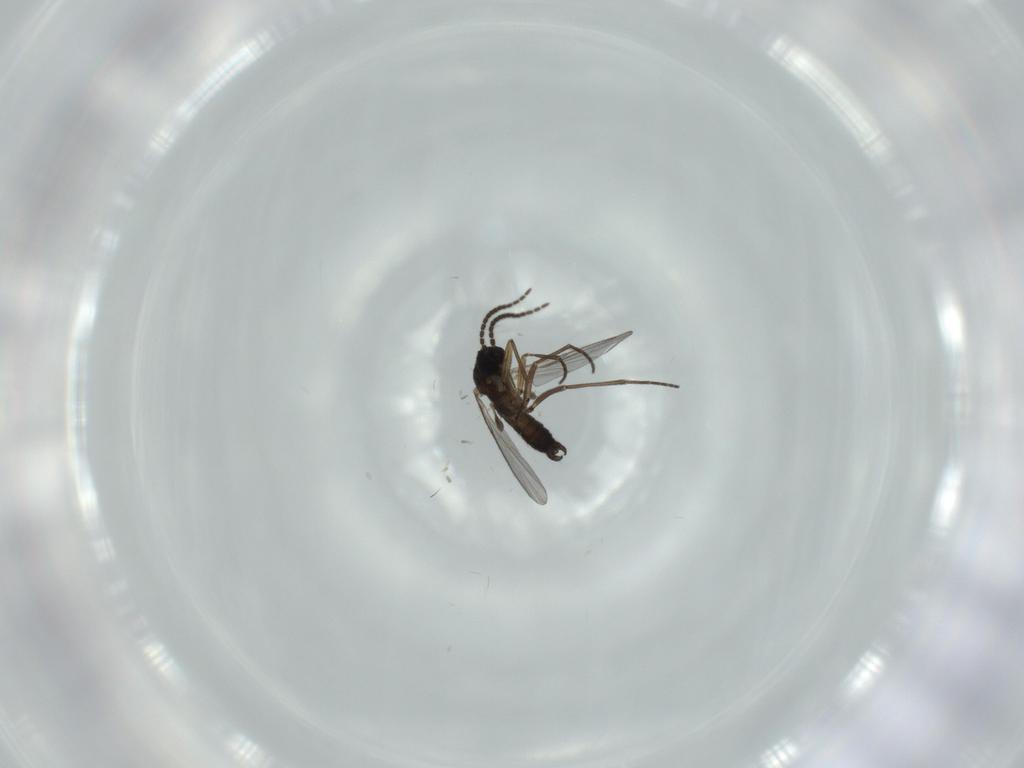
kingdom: Animalia
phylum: Arthropoda
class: Insecta
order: Diptera
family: Sciaridae
